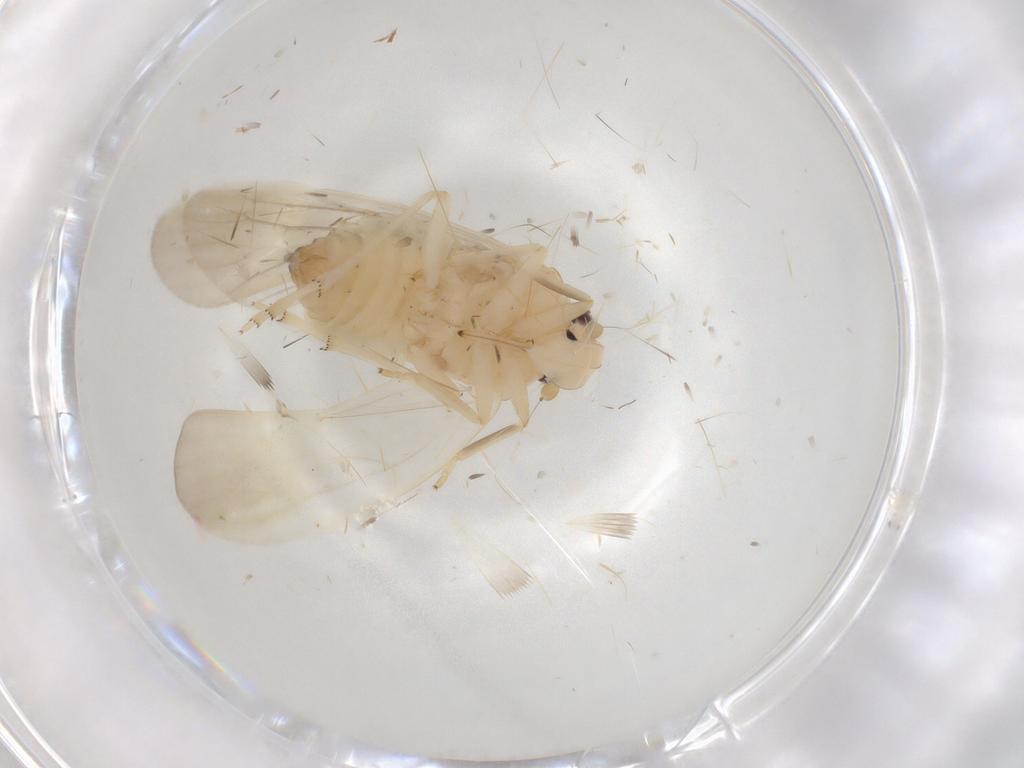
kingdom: Animalia
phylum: Arthropoda
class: Insecta
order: Hemiptera
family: Achilidae
